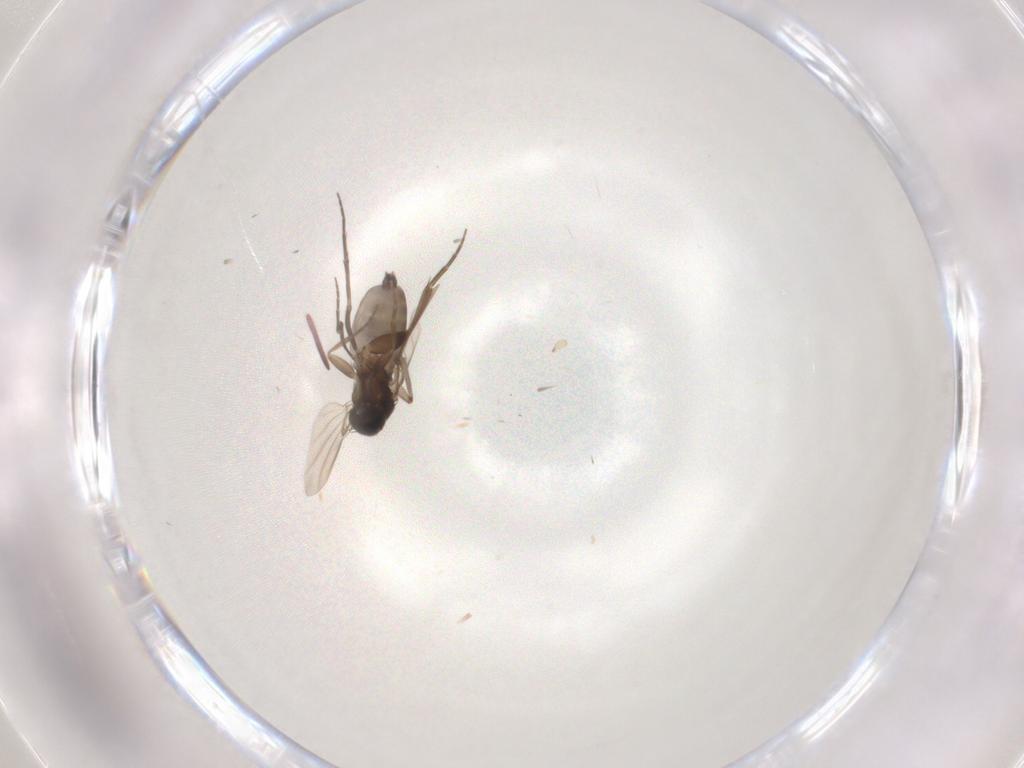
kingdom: Animalia
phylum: Arthropoda
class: Insecta
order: Diptera
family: Phoridae
